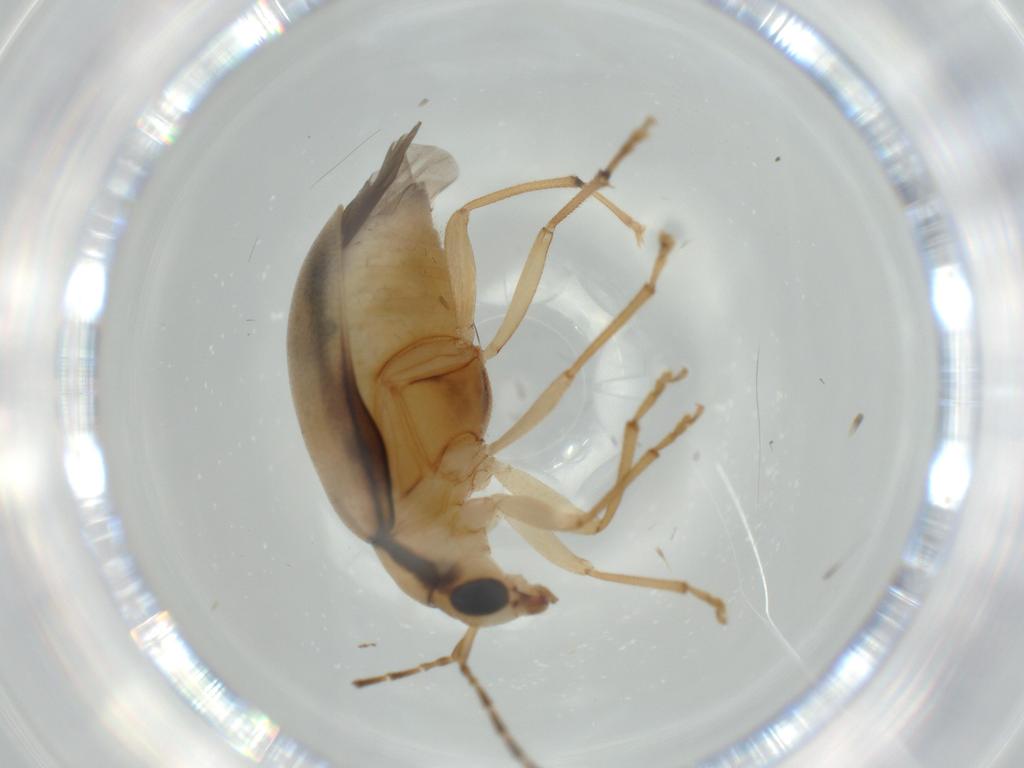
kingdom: Animalia
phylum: Arthropoda
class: Insecta
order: Coleoptera
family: Chrysomelidae
